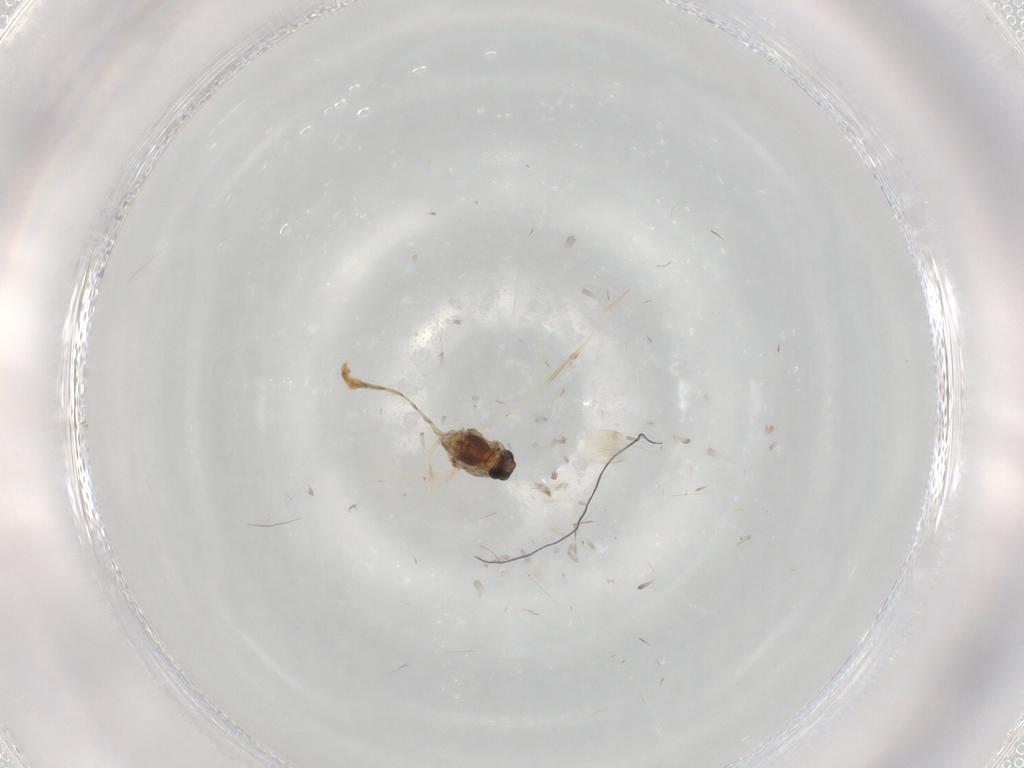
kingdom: Animalia
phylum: Arthropoda
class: Insecta
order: Diptera
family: Chironomidae
